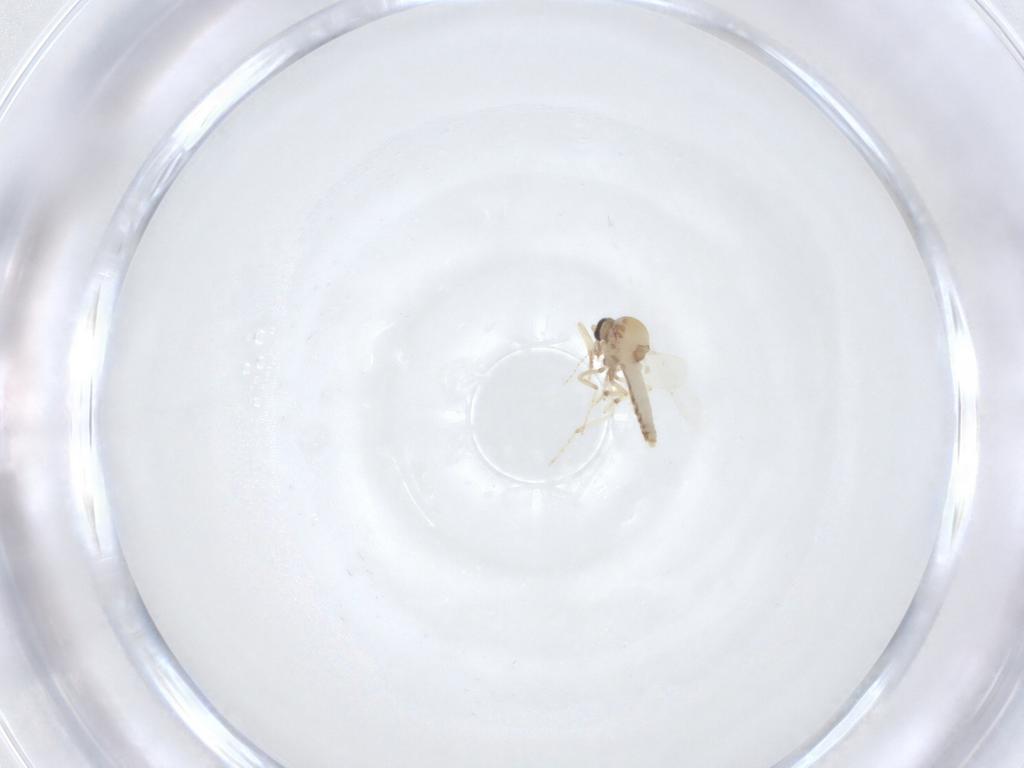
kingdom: Animalia
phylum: Arthropoda
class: Insecta
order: Diptera
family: Ceratopogonidae
